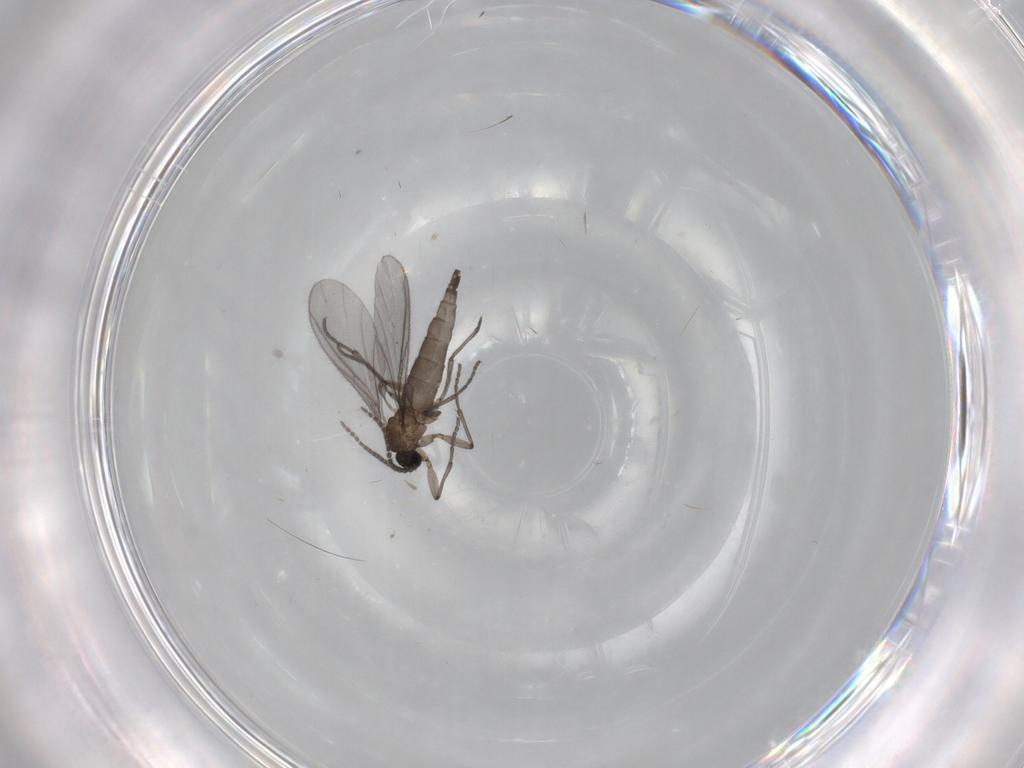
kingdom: Animalia
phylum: Arthropoda
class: Insecta
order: Diptera
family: Sciaridae
